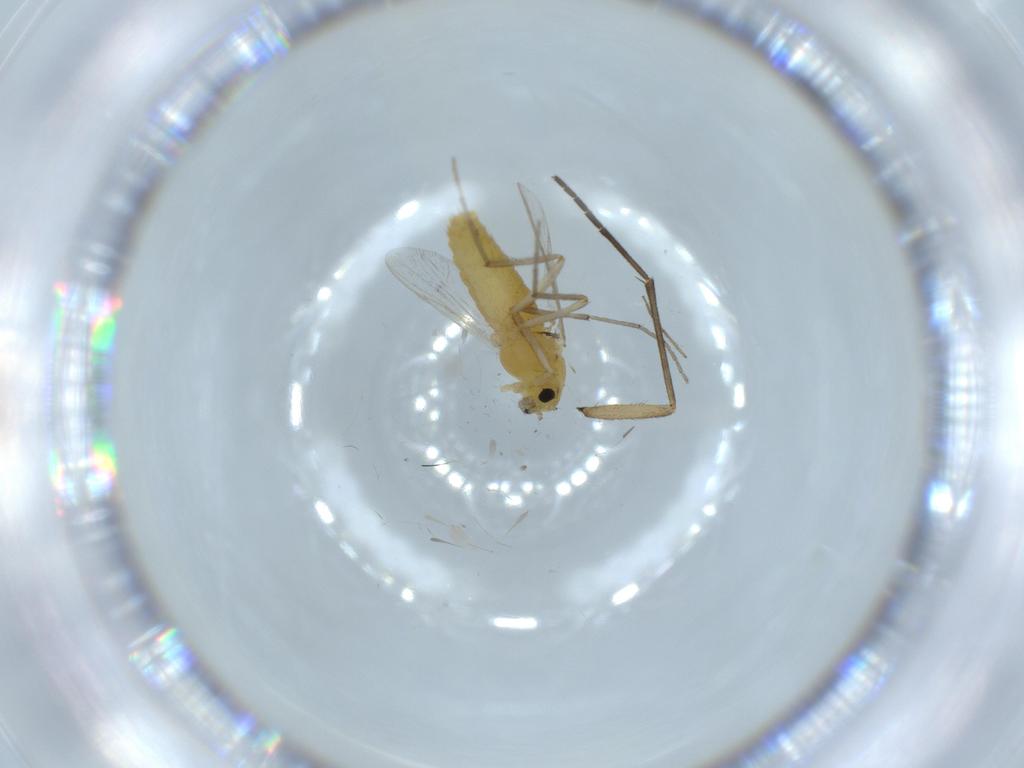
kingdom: Animalia
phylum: Arthropoda
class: Insecta
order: Diptera
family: Chironomidae
